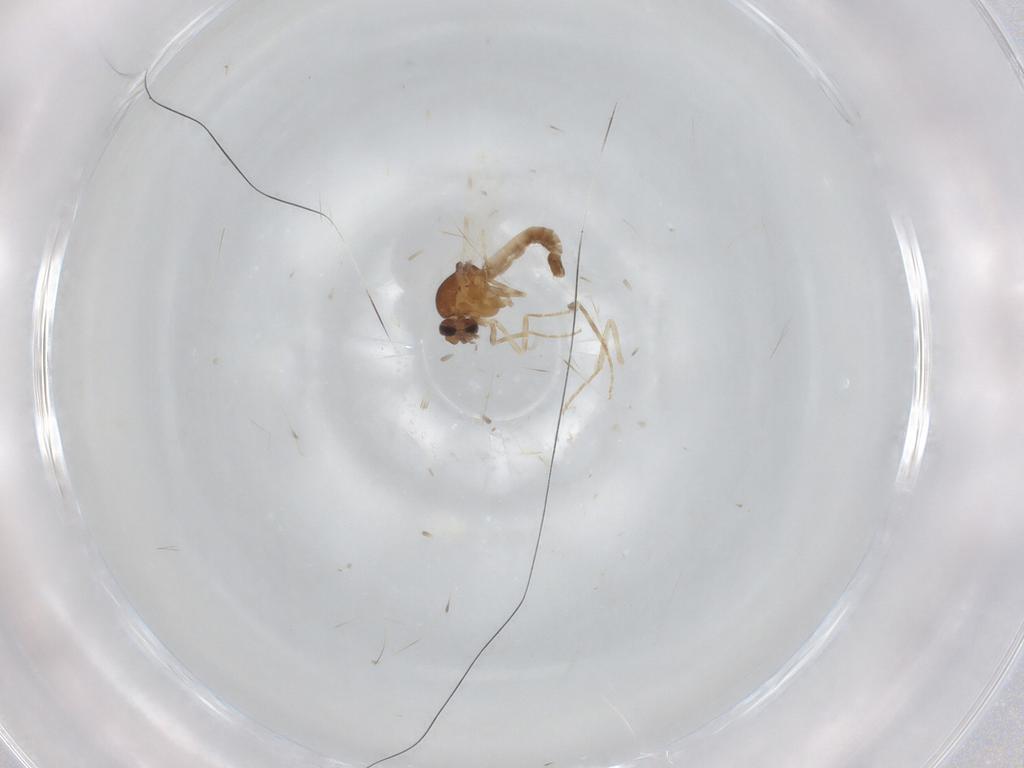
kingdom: Animalia
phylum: Arthropoda
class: Insecta
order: Diptera
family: Ceratopogonidae
